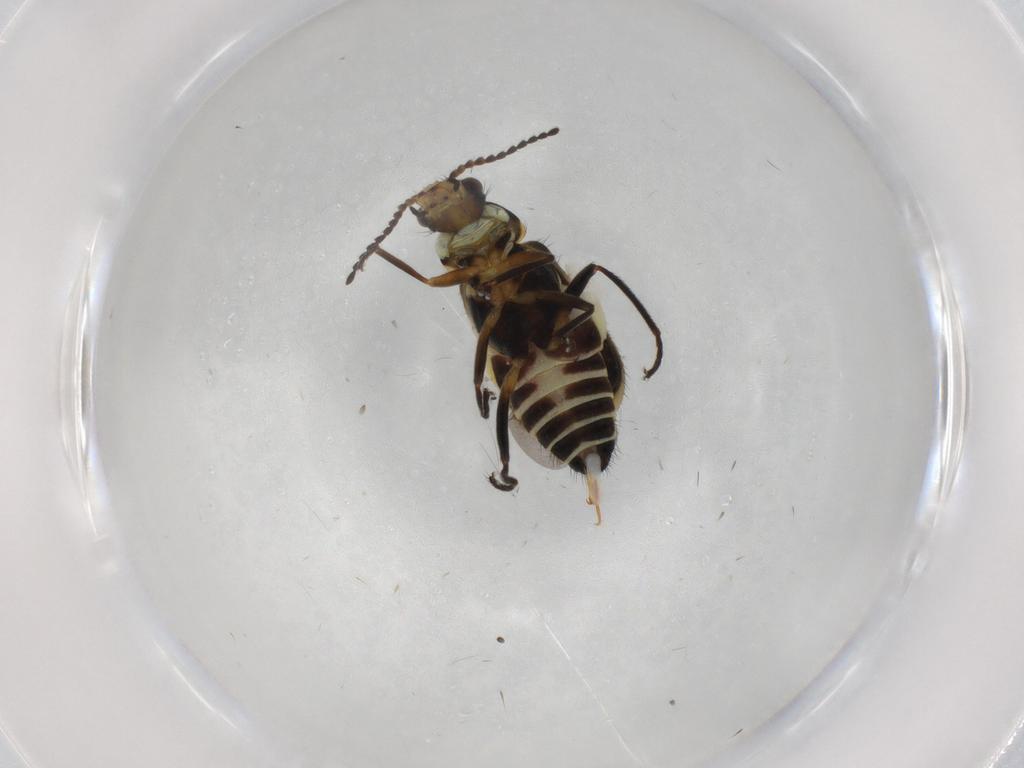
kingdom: Animalia
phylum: Arthropoda
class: Insecta
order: Coleoptera
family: Melyridae
